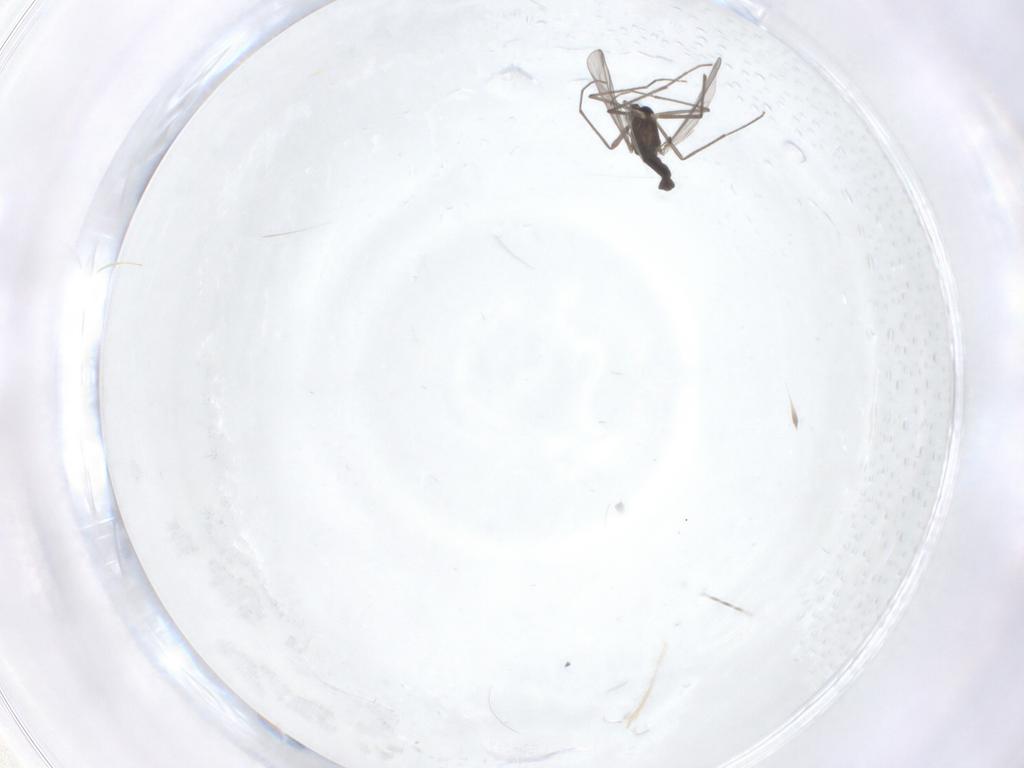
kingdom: Animalia
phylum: Arthropoda
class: Insecta
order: Diptera
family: Chironomidae
